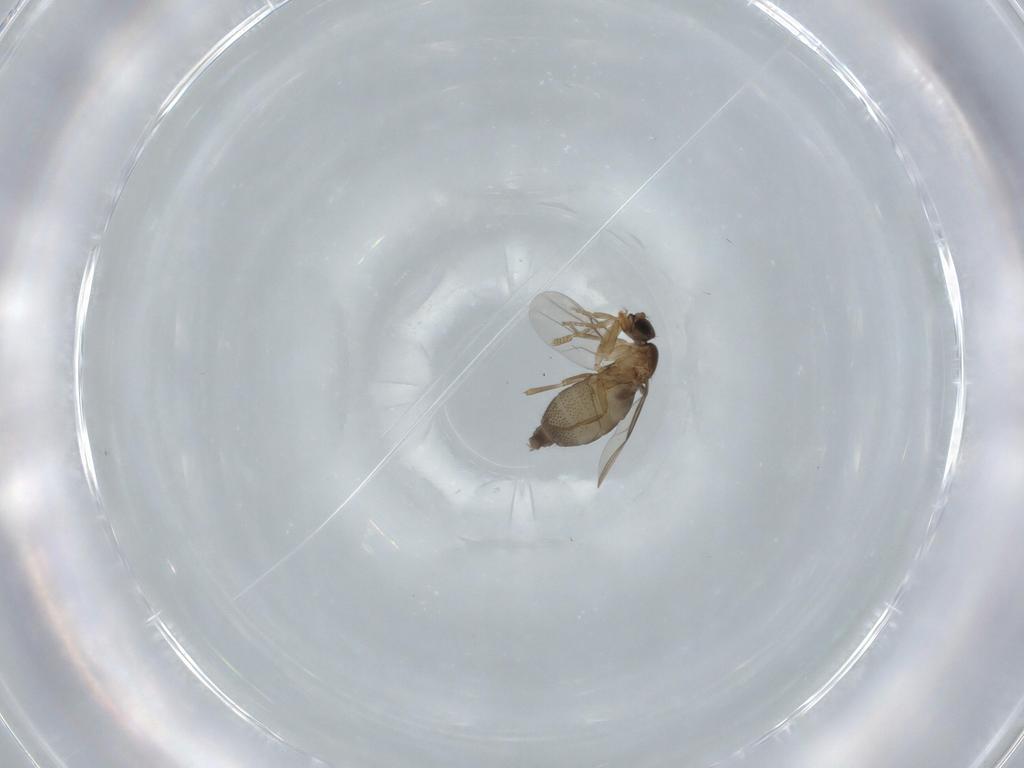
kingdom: Animalia
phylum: Arthropoda
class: Insecta
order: Diptera
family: Phoridae
